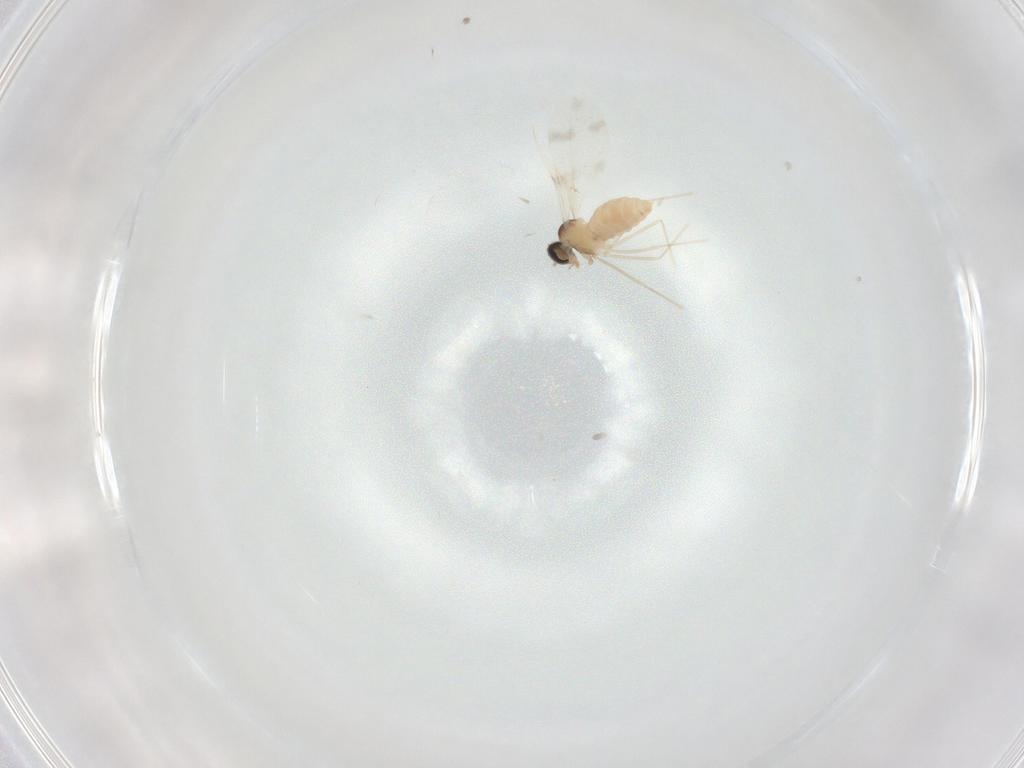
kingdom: Animalia
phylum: Arthropoda
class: Insecta
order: Diptera
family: Cecidomyiidae
